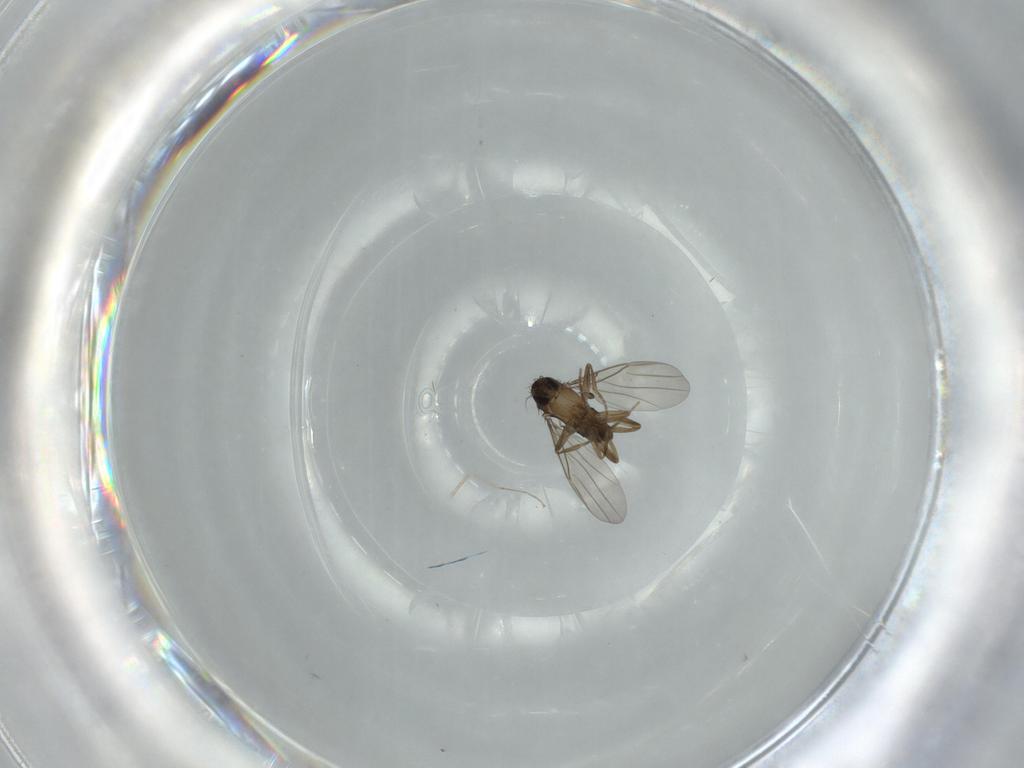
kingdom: Animalia
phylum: Arthropoda
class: Insecta
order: Diptera
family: Phoridae
